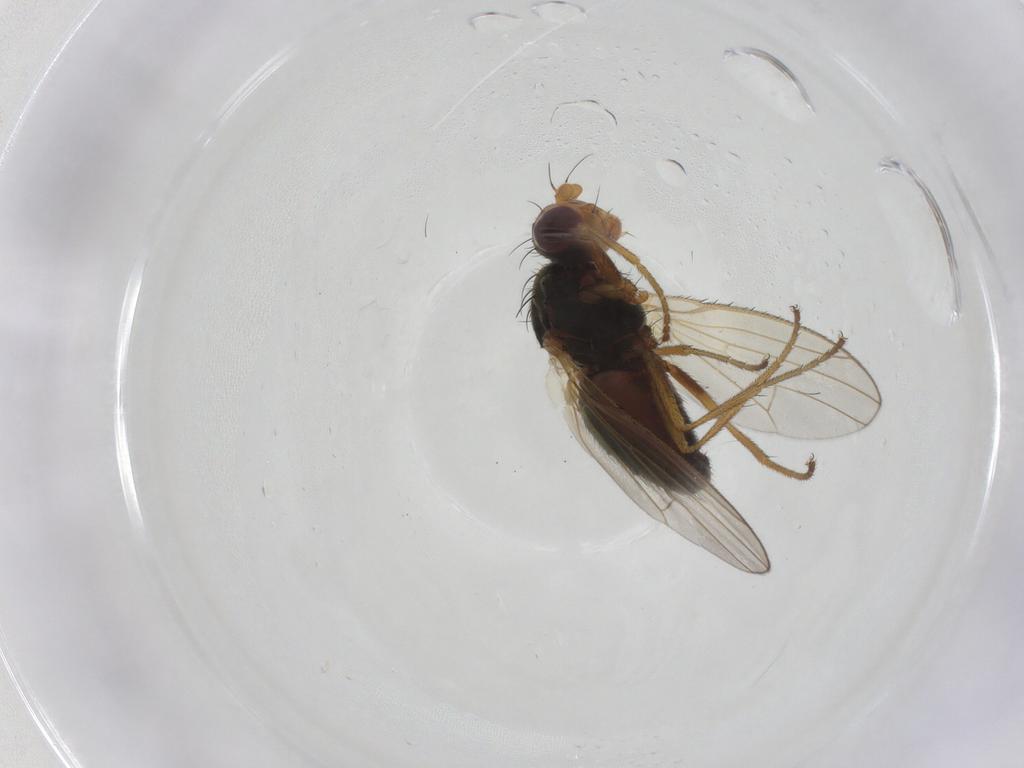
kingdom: Animalia
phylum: Arthropoda
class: Insecta
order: Diptera
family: Heleomyzidae
